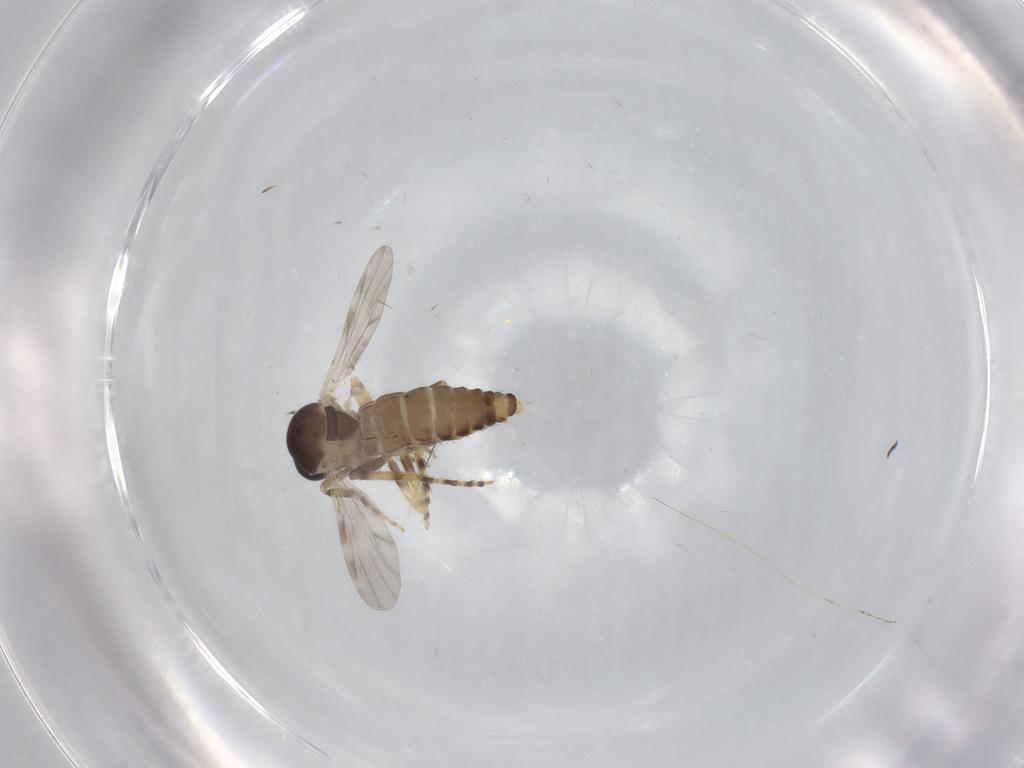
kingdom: Animalia
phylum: Arthropoda
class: Insecta
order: Diptera
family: Ceratopogonidae
